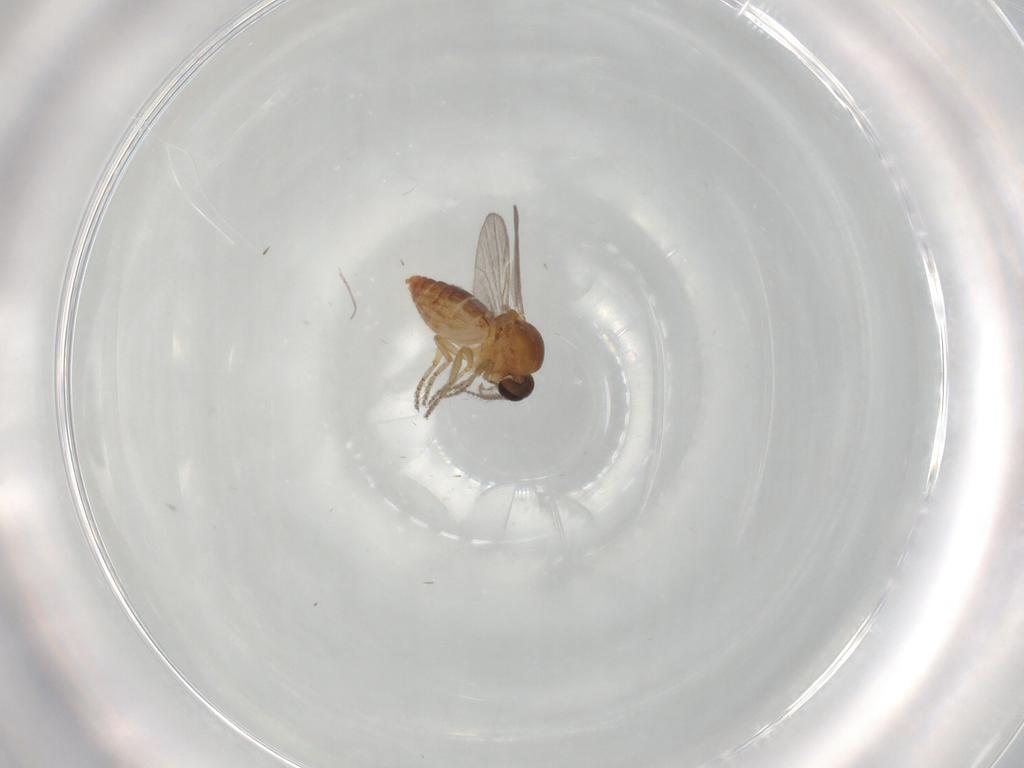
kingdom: Animalia
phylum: Arthropoda
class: Insecta
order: Diptera
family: Ceratopogonidae
